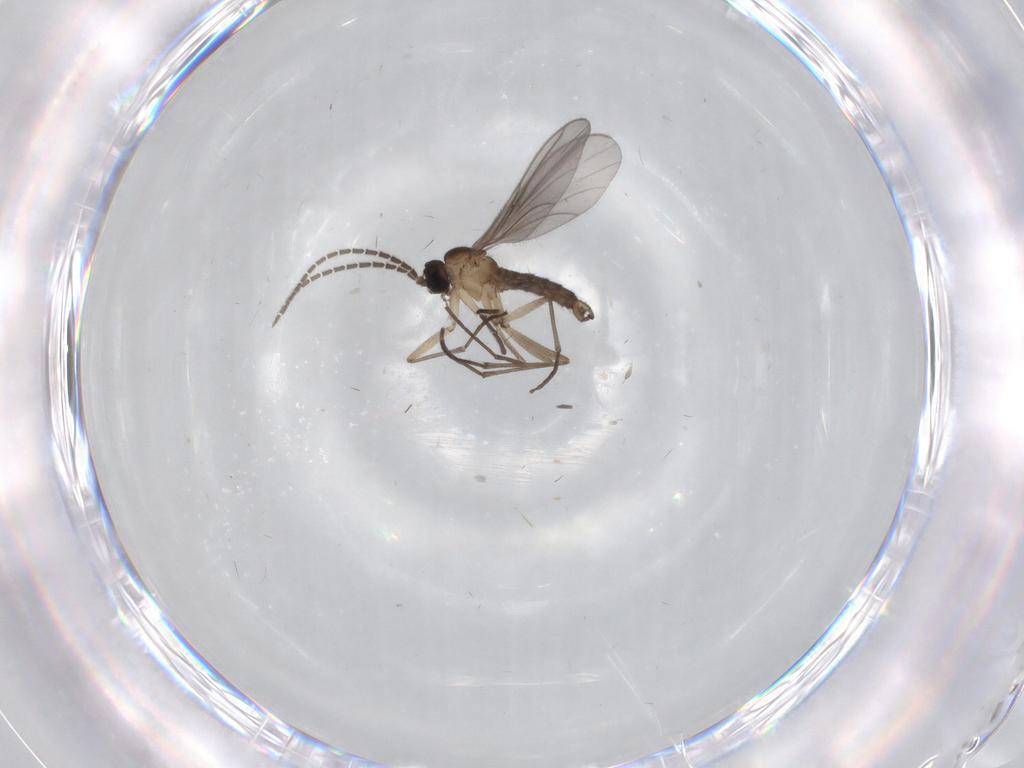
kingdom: Animalia
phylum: Arthropoda
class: Insecta
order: Diptera
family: Sciaridae
